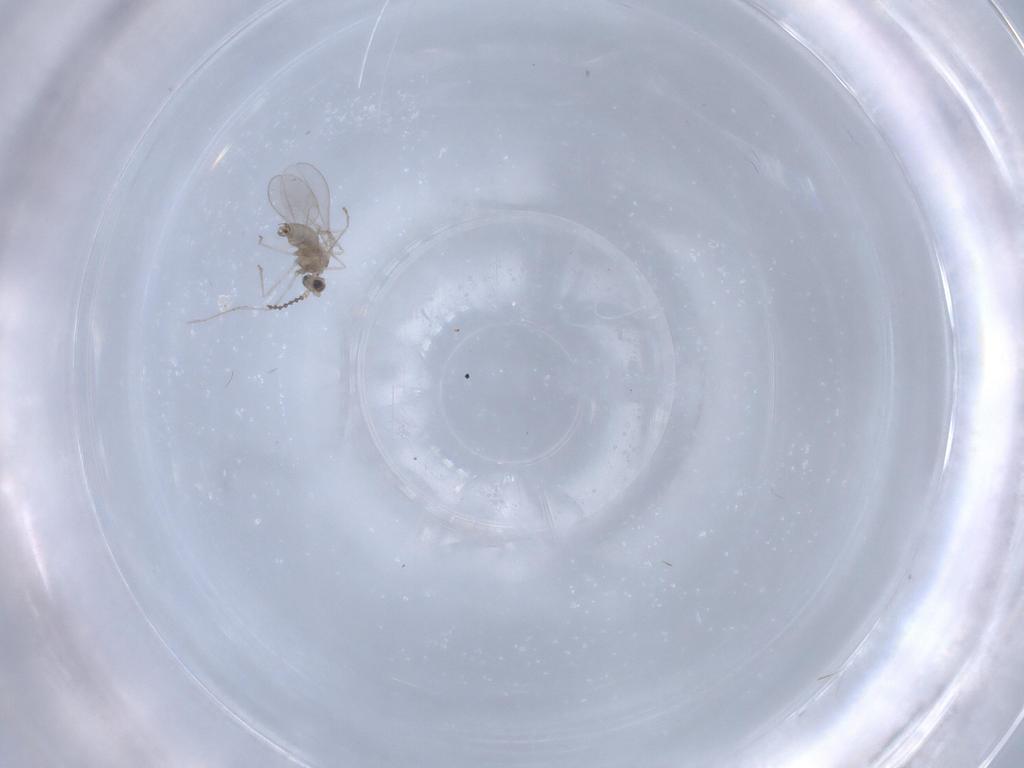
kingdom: Animalia
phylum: Arthropoda
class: Insecta
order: Diptera
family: Chironomidae
